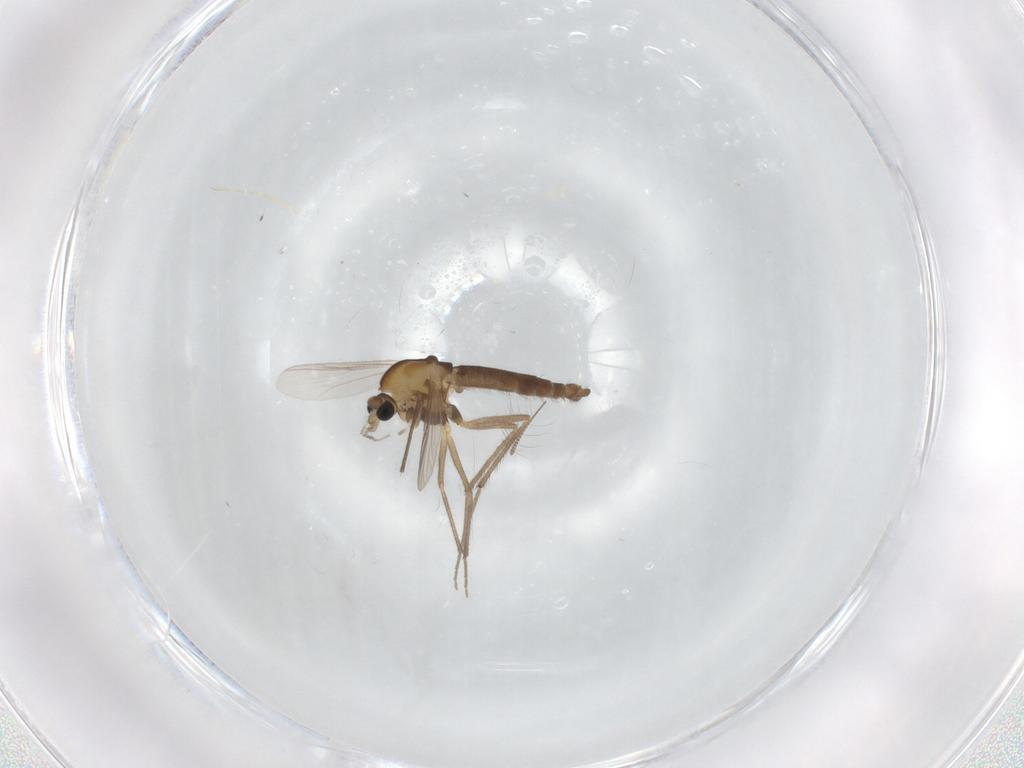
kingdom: Animalia
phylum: Arthropoda
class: Insecta
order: Diptera
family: Chironomidae
